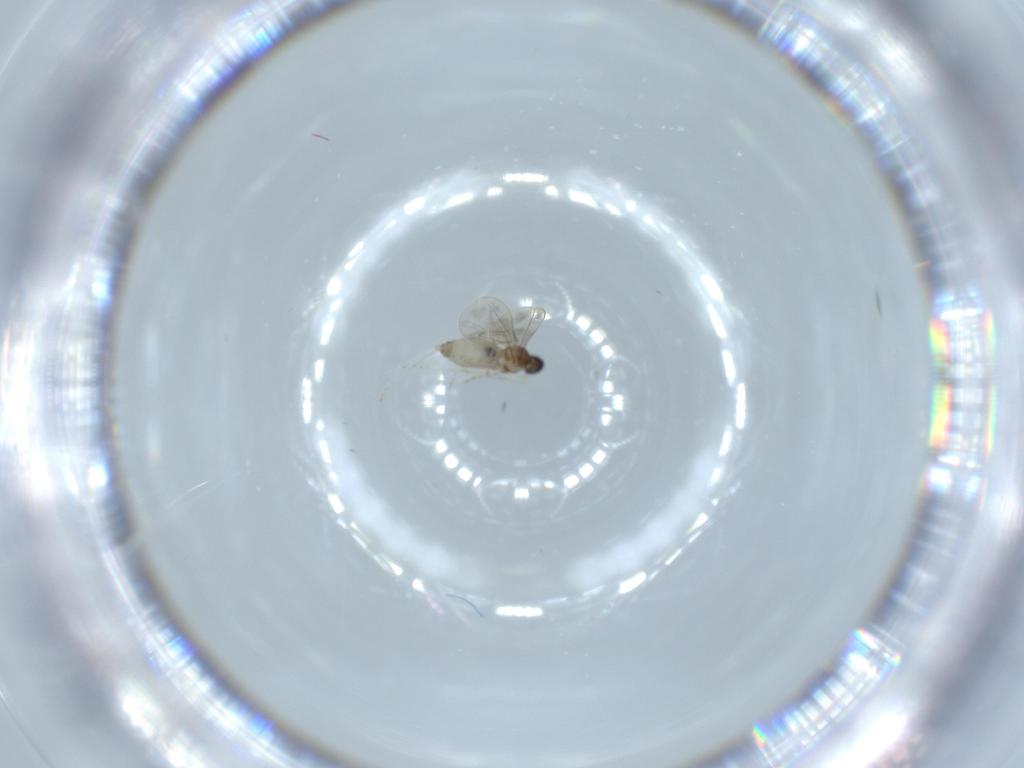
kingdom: Animalia
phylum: Arthropoda
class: Insecta
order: Diptera
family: Cecidomyiidae
